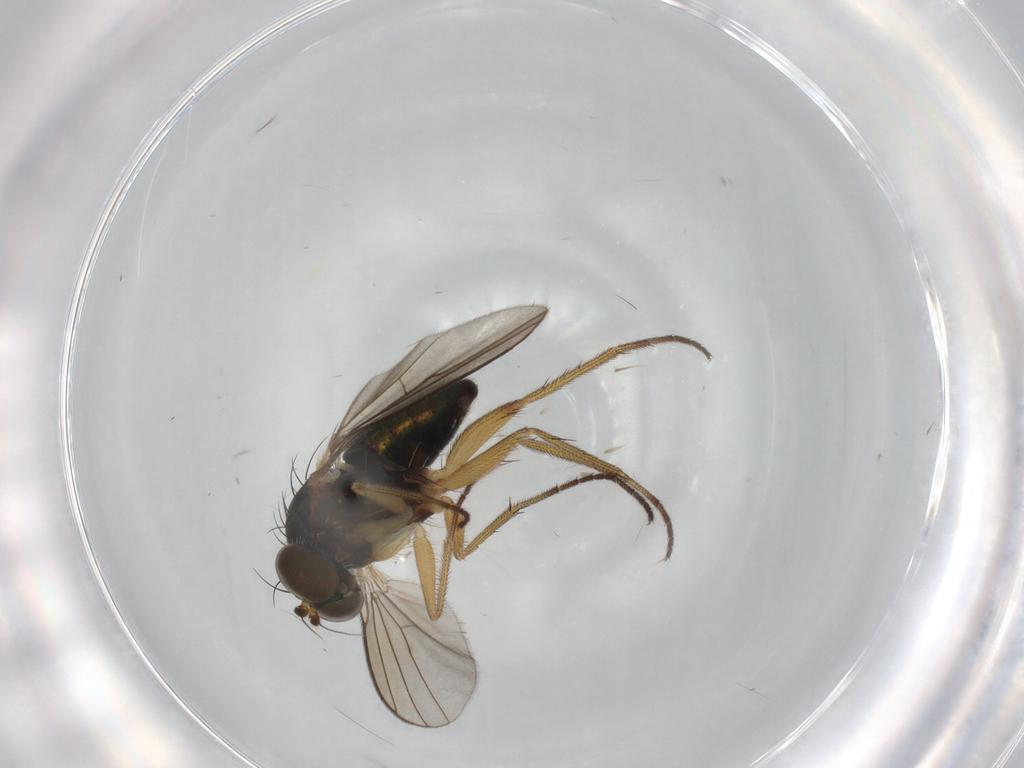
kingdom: Animalia
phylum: Arthropoda
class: Insecta
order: Diptera
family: Dolichopodidae
